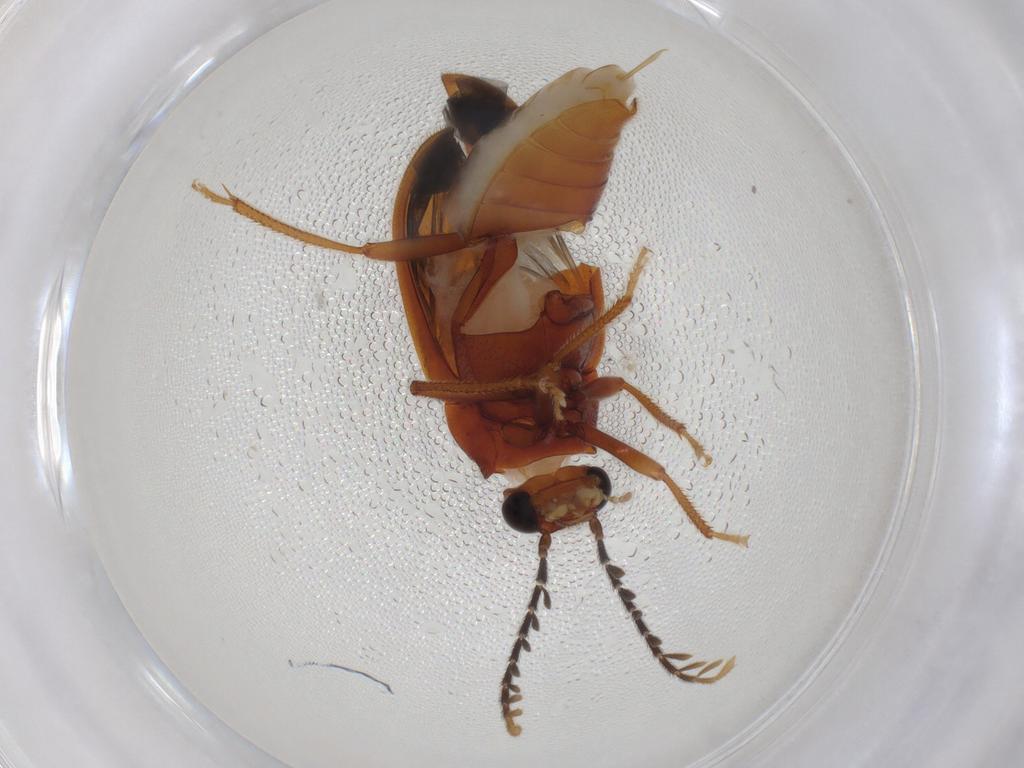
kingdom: Animalia
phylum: Arthropoda
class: Insecta
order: Coleoptera
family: Ptilodactylidae
